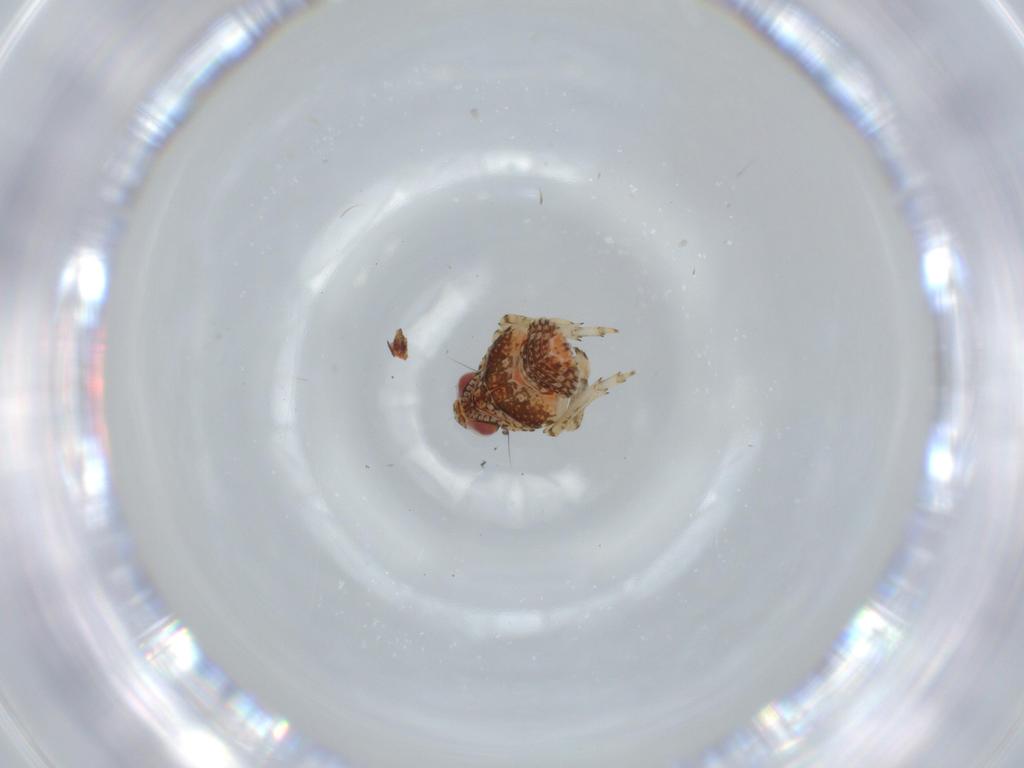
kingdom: Animalia
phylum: Arthropoda
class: Insecta
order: Hemiptera
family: Issidae
